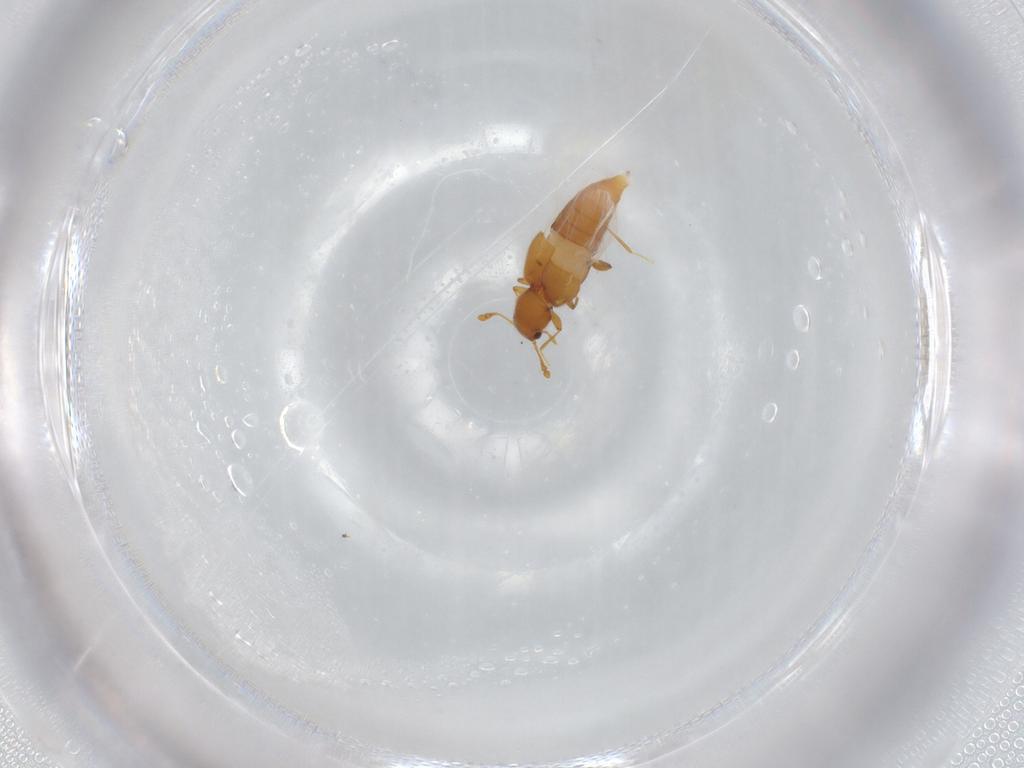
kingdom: Animalia
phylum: Arthropoda
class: Insecta
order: Coleoptera
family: Staphylinidae
